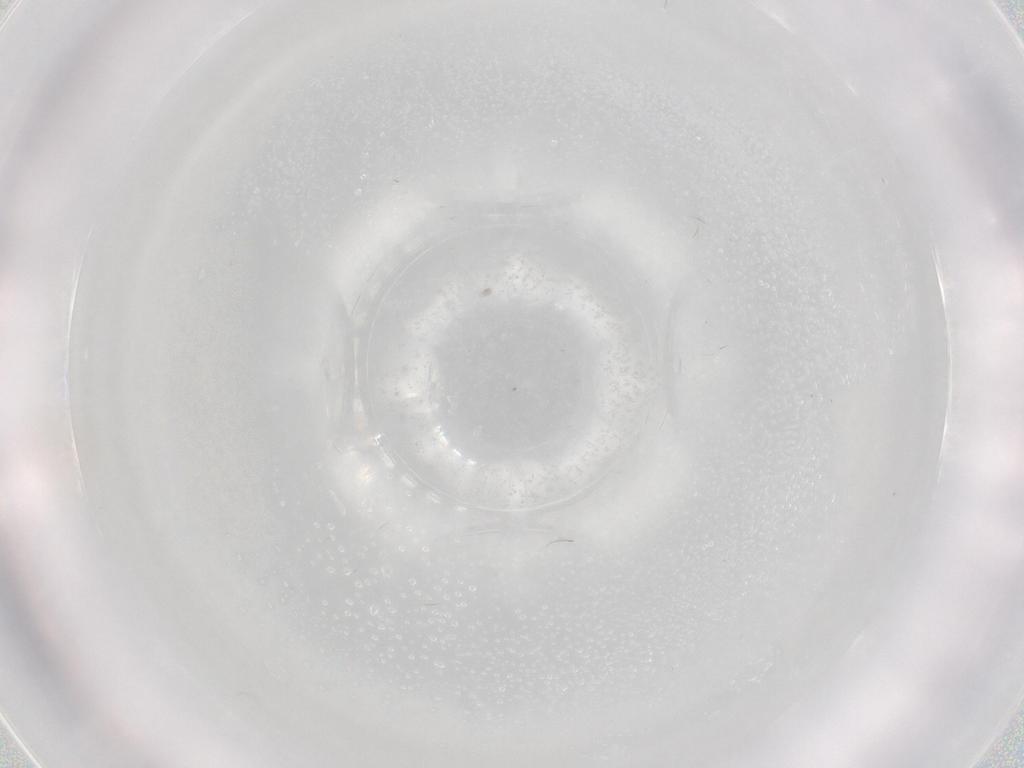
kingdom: Animalia
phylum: Arthropoda
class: Insecta
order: Hemiptera
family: Diaspididae
